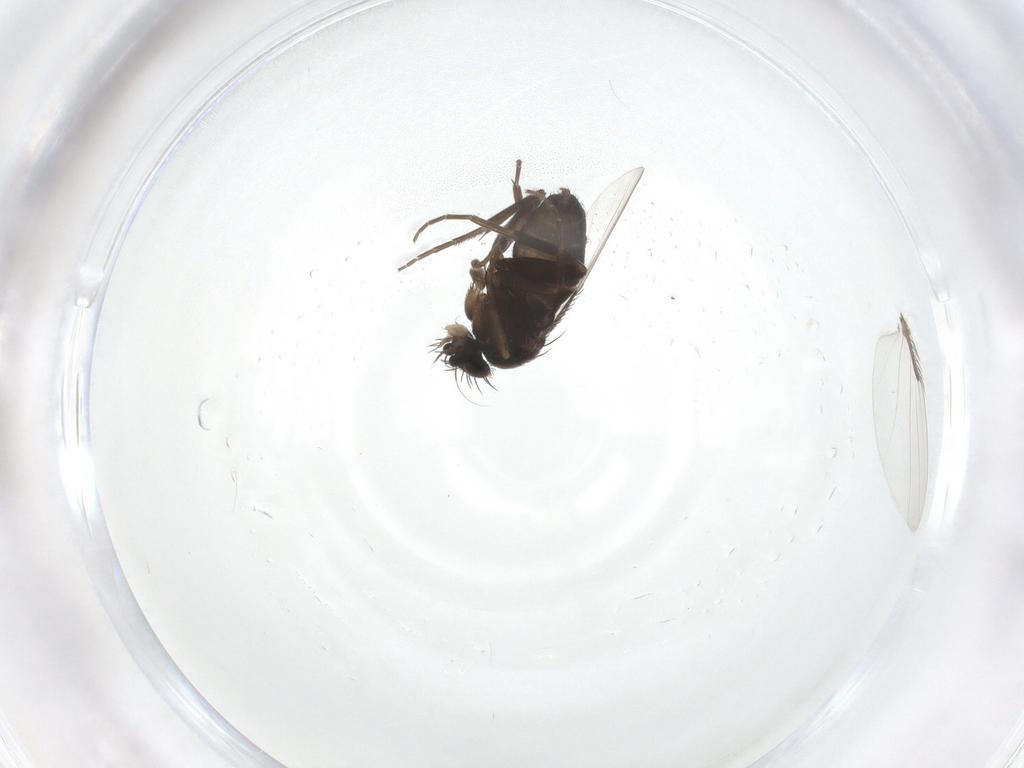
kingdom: Animalia
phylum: Arthropoda
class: Insecta
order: Diptera
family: Phoridae
